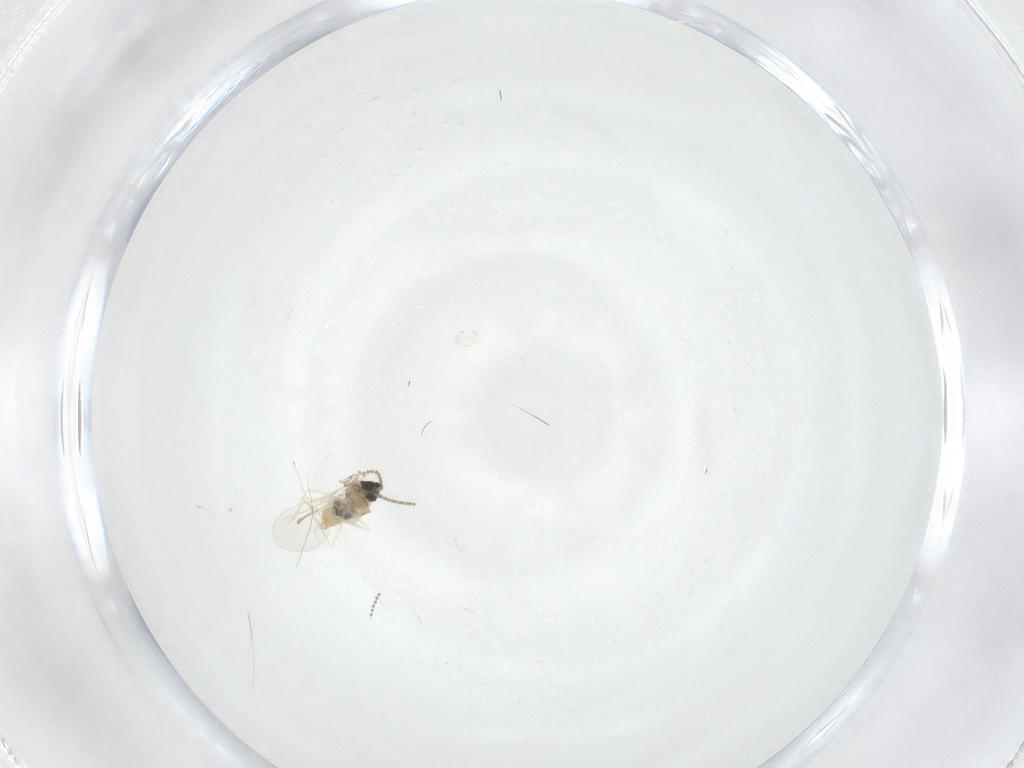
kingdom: Animalia
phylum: Arthropoda
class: Insecta
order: Diptera
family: Cecidomyiidae
